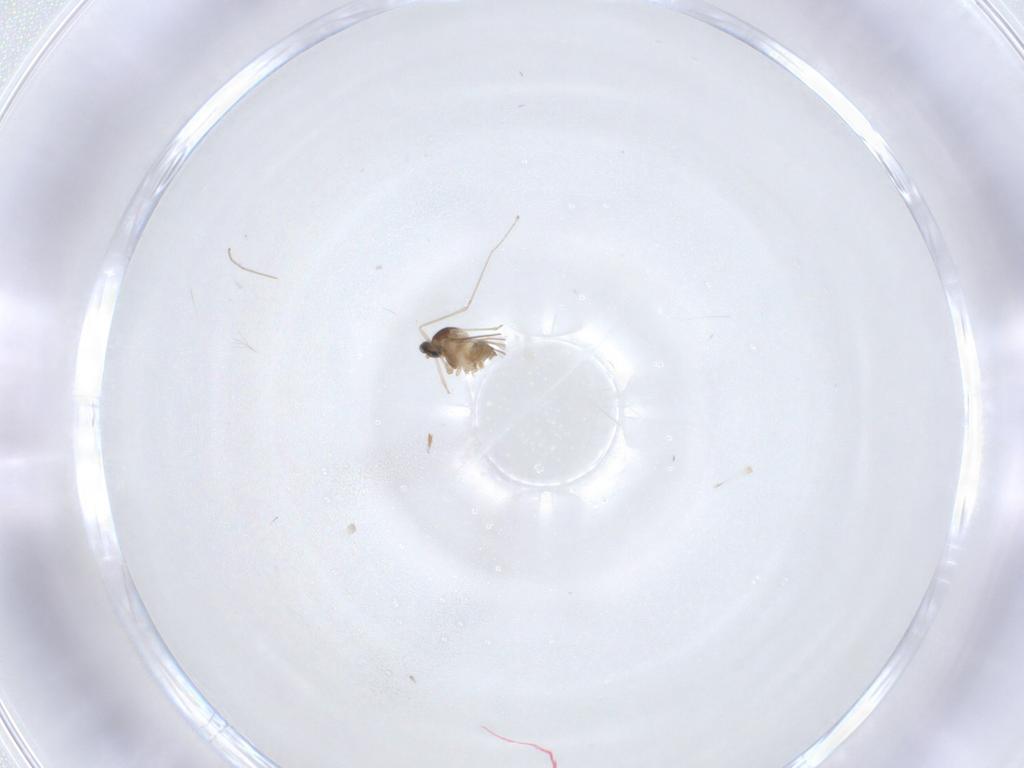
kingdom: Animalia
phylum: Arthropoda
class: Insecta
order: Diptera
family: Cecidomyiidae
